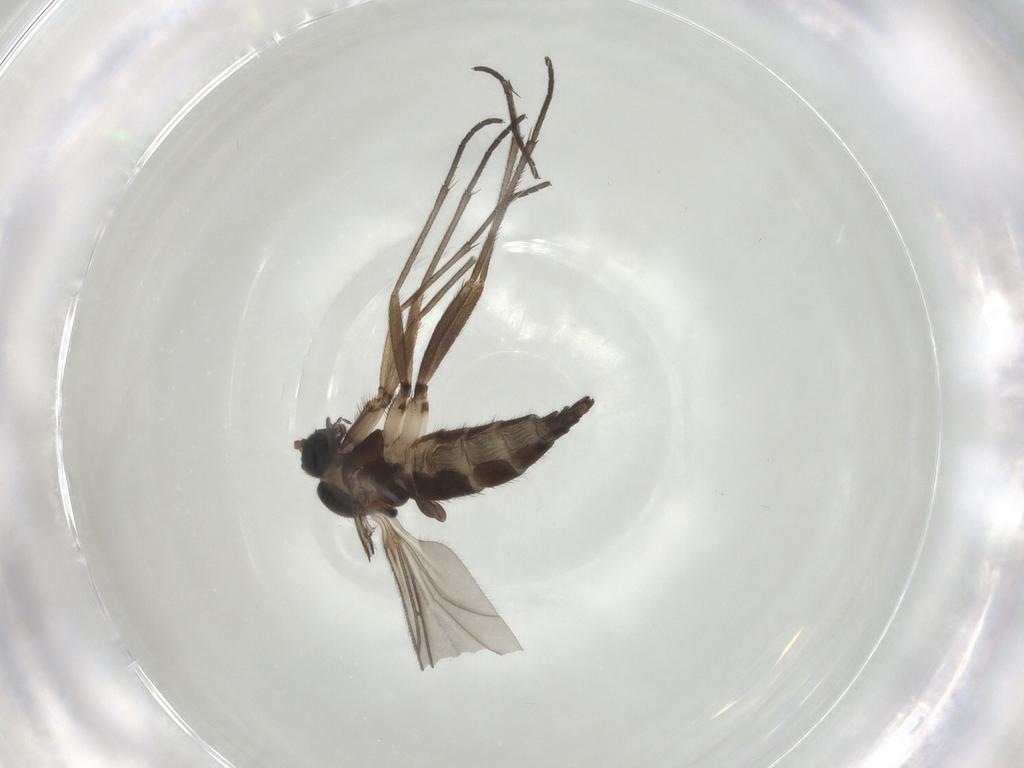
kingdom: Animalia
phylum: Arthropoda
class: Insecta
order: Diptera
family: Sciaridae
